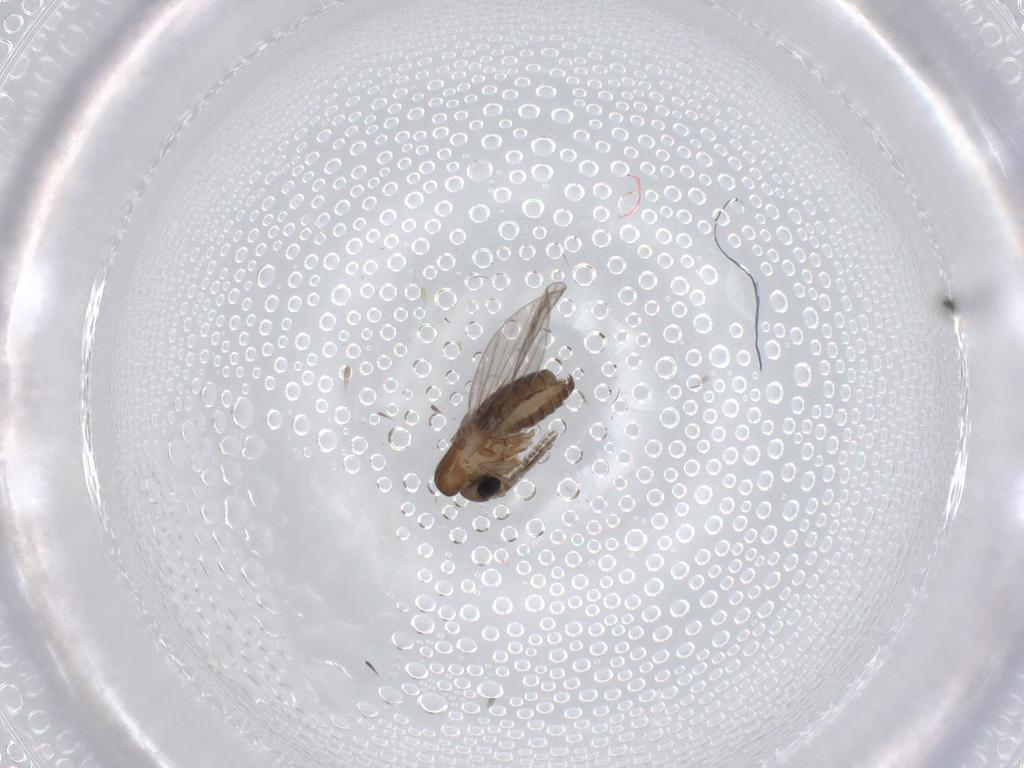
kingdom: Animalia
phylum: Arthropoda
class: Insecta
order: Diptera
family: Psychodidae
